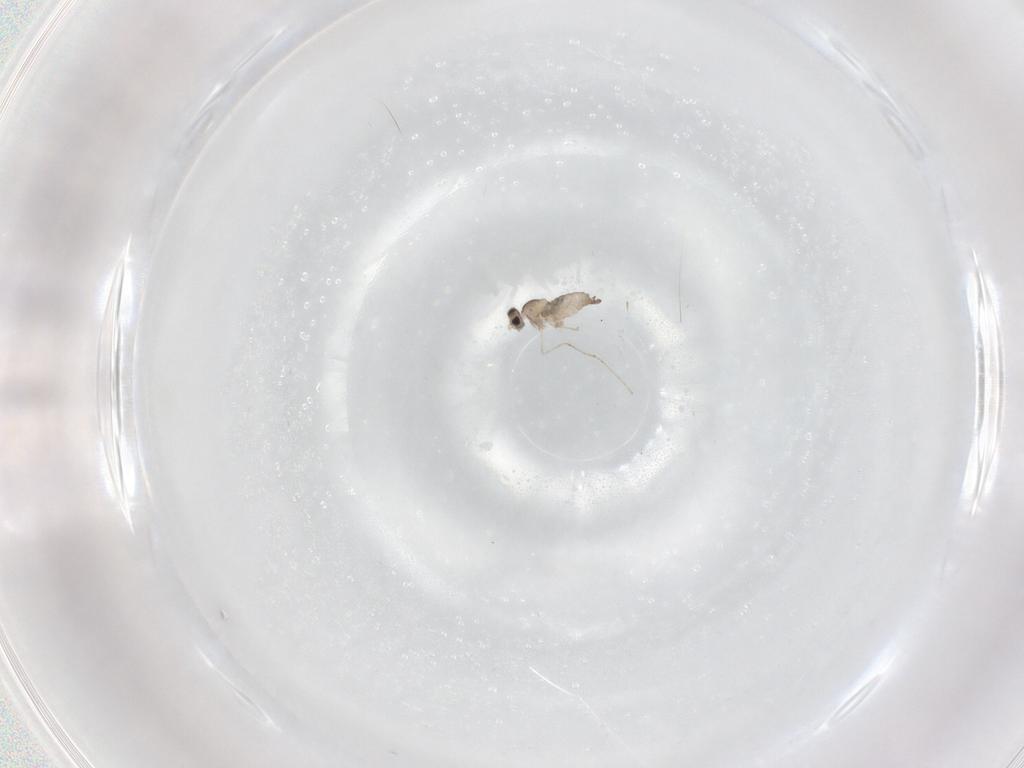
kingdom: Animalia
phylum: Arthropoda
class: Insecta
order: Diptera
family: Cecidomyiidae
